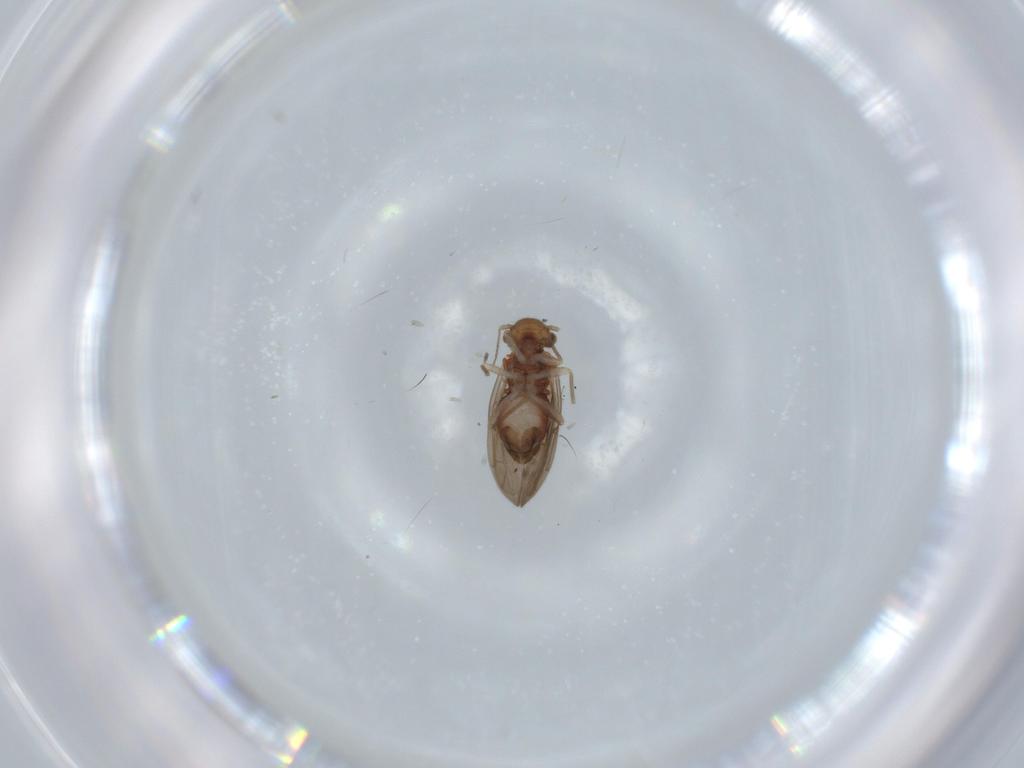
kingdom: Animalia
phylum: Arthropoda
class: Insecta
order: Psocodea
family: Ectopsocidae
